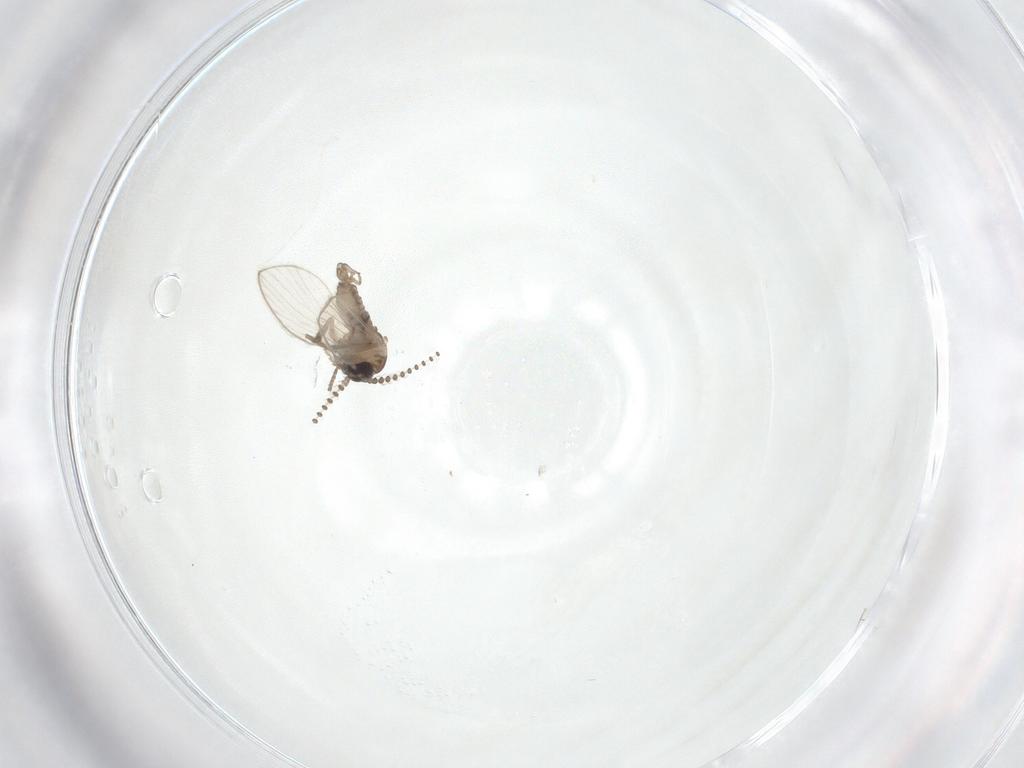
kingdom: Animalia
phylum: Arthropoda
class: Insecta
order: Diptera
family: Psychodidae
